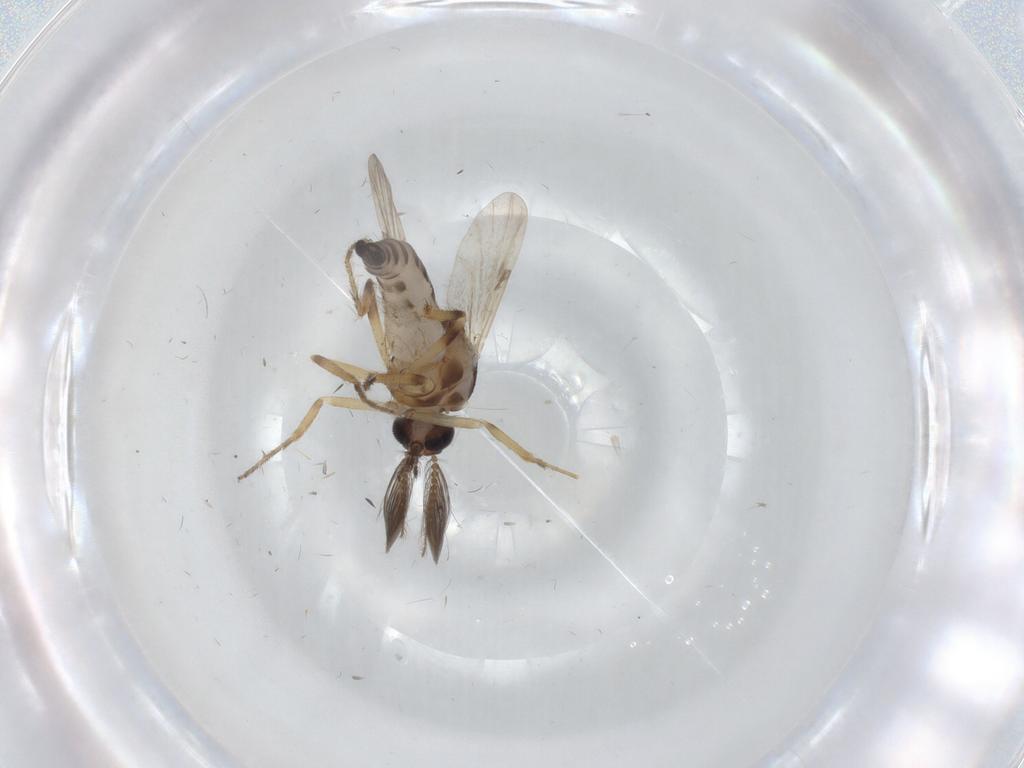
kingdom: Animalia
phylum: Arthropoda
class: Insecta
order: Diptera
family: Ceratopogonidae
